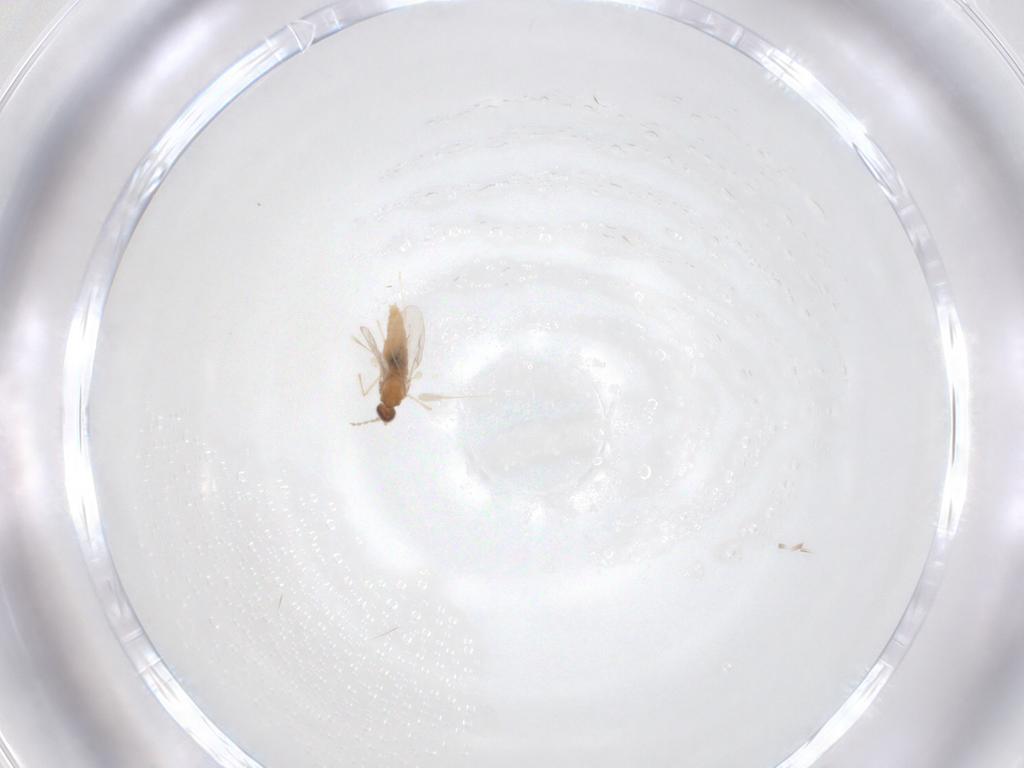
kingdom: Animalia
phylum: Arthropoda
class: Insecta
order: Diptera
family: Cecidomyiidae
